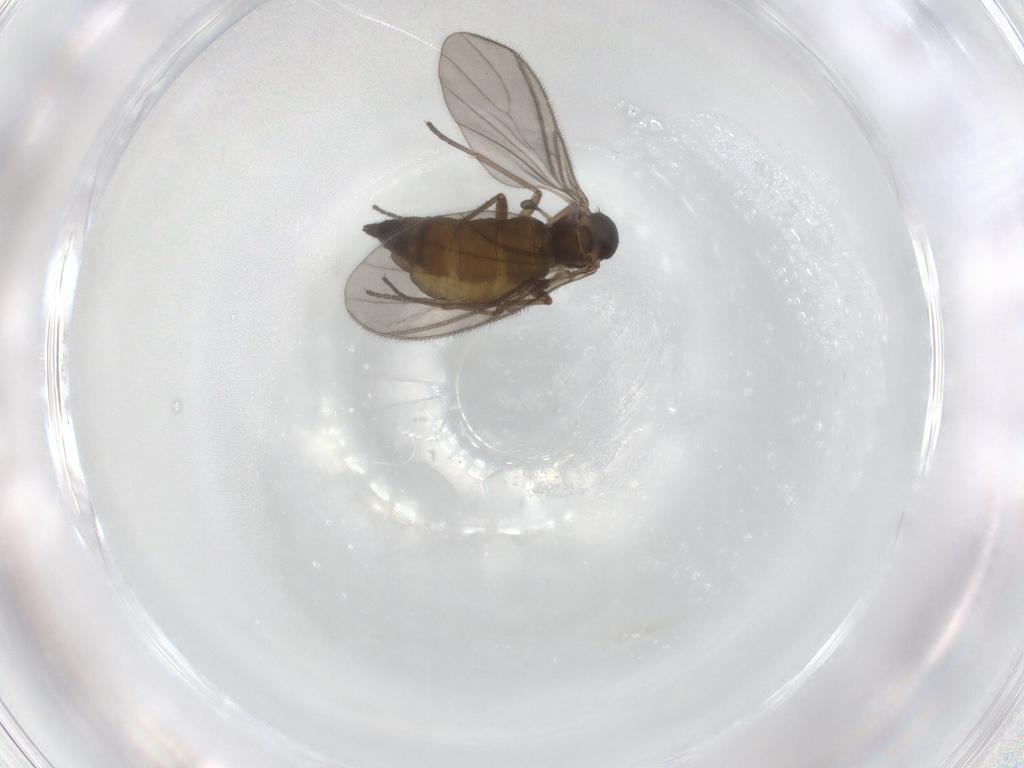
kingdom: Animalia
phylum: Arthropoda
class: Insecta
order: Diptera
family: Sciaridae
